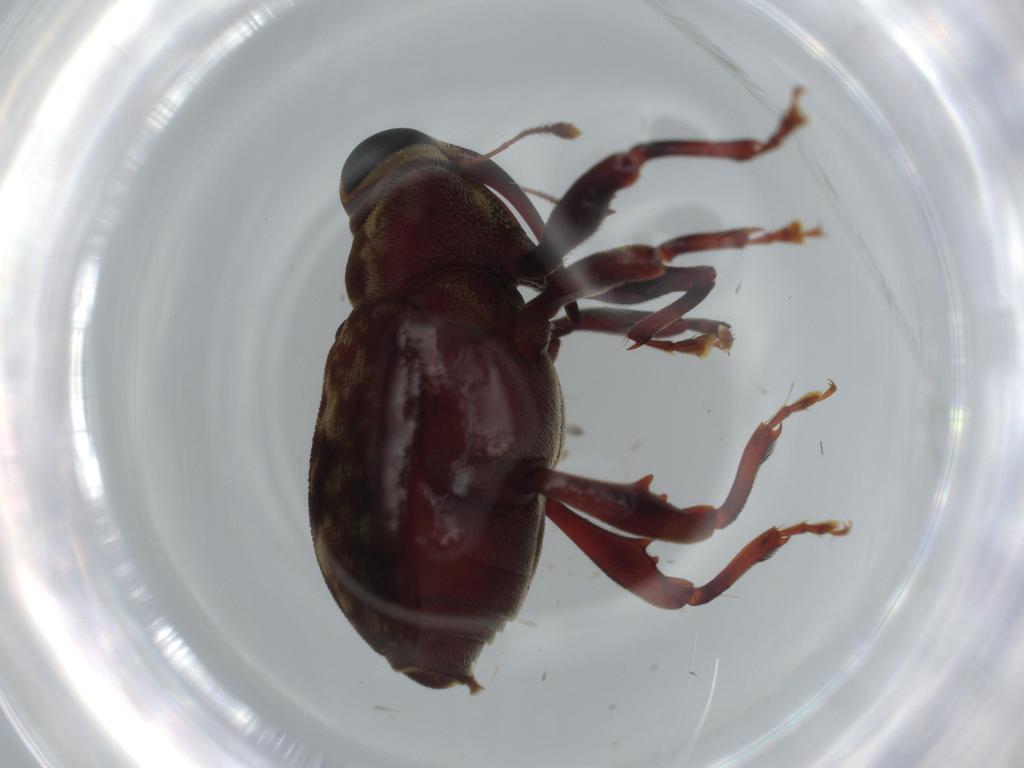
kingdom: Animalia
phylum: Arthropoda
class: Insecta
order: Coleoptera
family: Curculionidae
